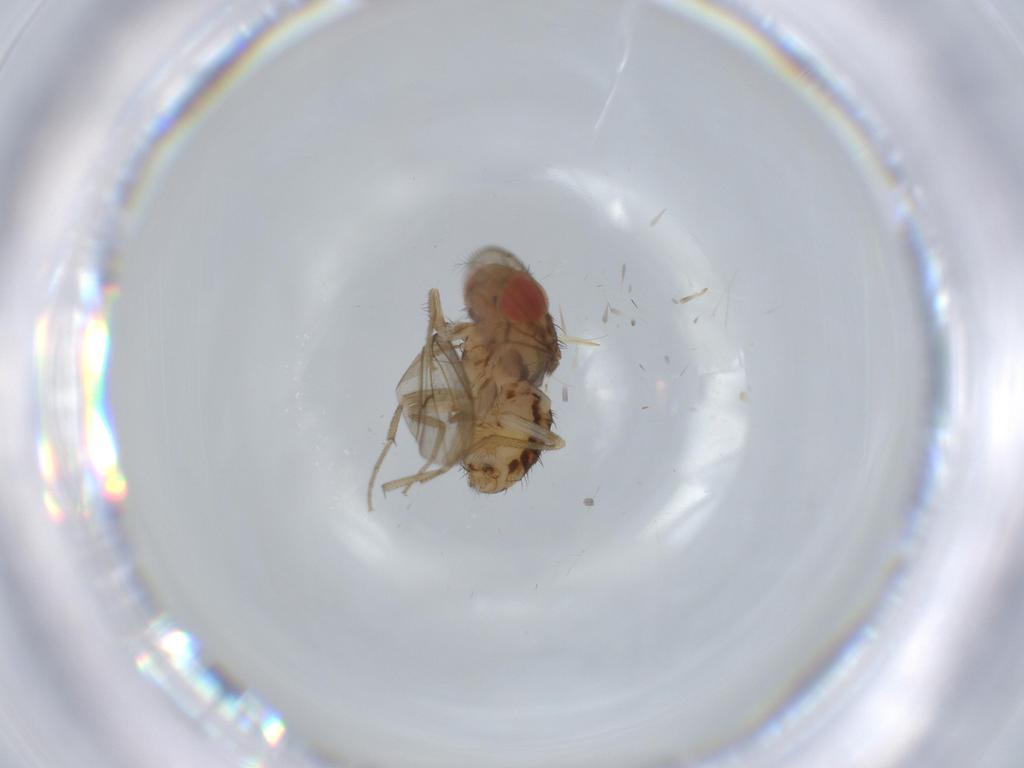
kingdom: Animalia
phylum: Arthropoda
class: Insecta
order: Diptera
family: Drosophilidae
